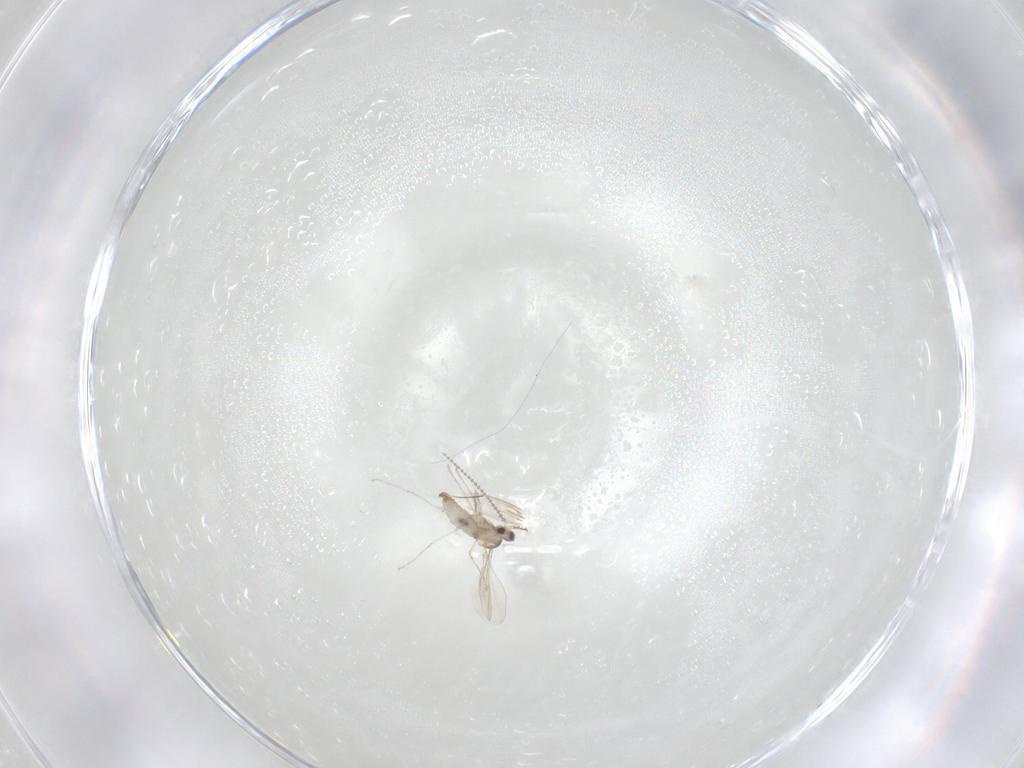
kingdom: Animalia
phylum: Arthropoda
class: Insecta
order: Diptera
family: Cecidomyiidae
